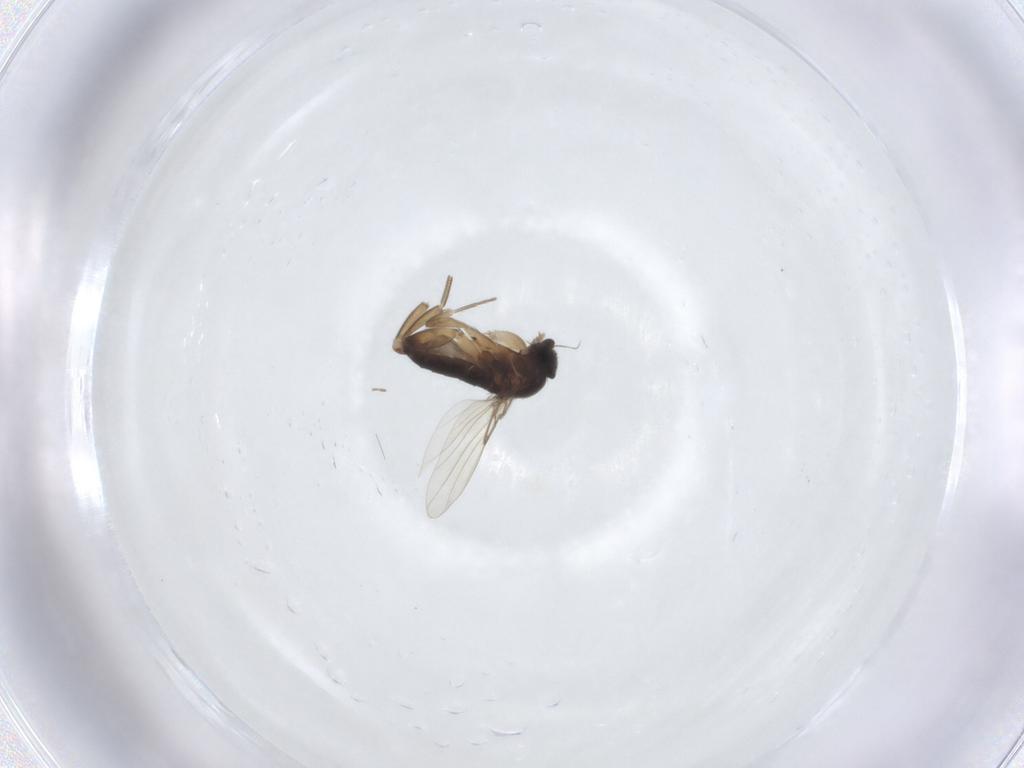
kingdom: Animalia
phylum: Arthropoda
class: Insecta
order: Diptera
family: Phoridae
